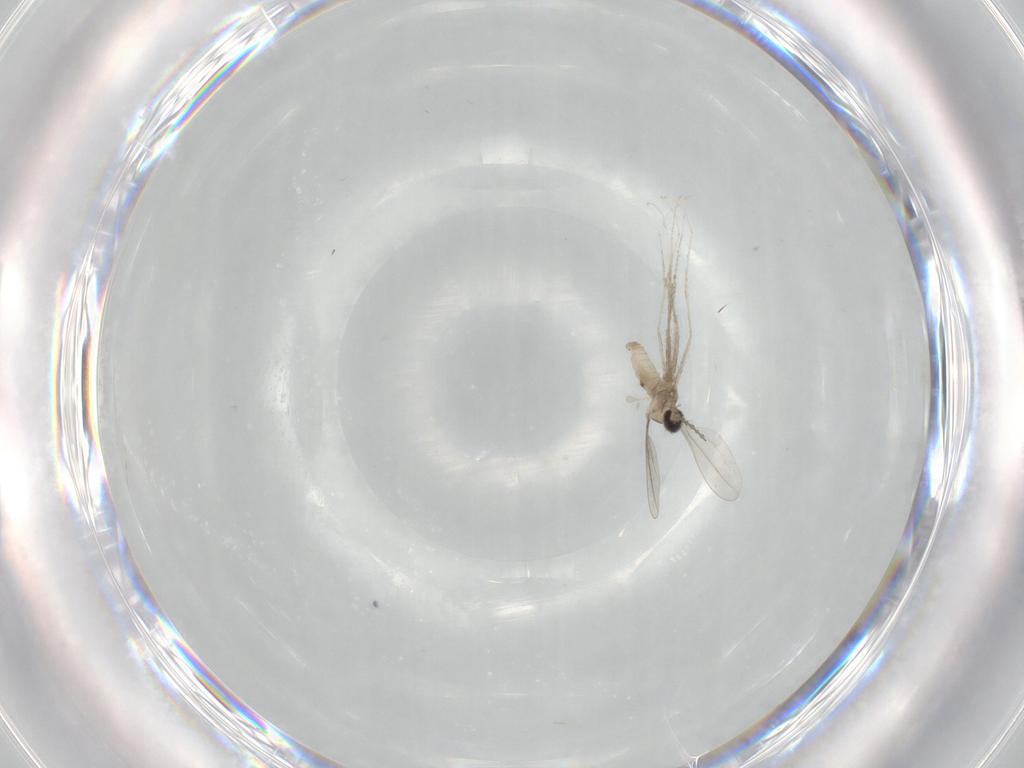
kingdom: Animalia
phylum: Arthropoda
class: Insecta
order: Diptera
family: Cecidomyiidae
